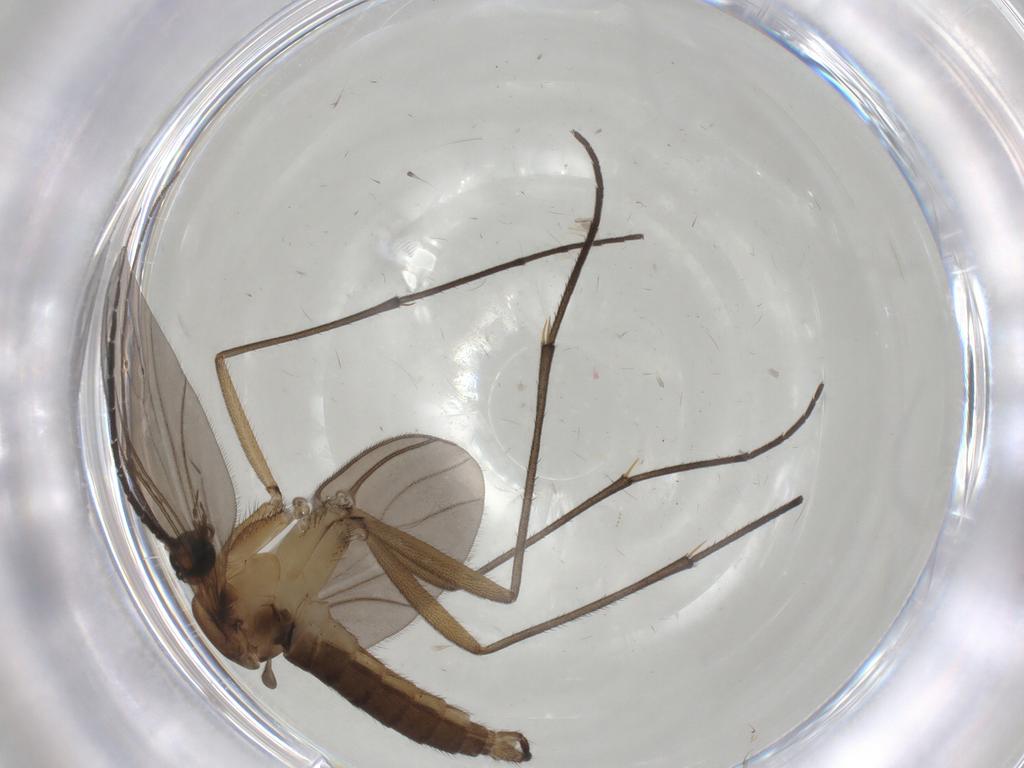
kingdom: Animalia
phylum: Arthropoda
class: Insecta
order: Diptera
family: Sciaridae
